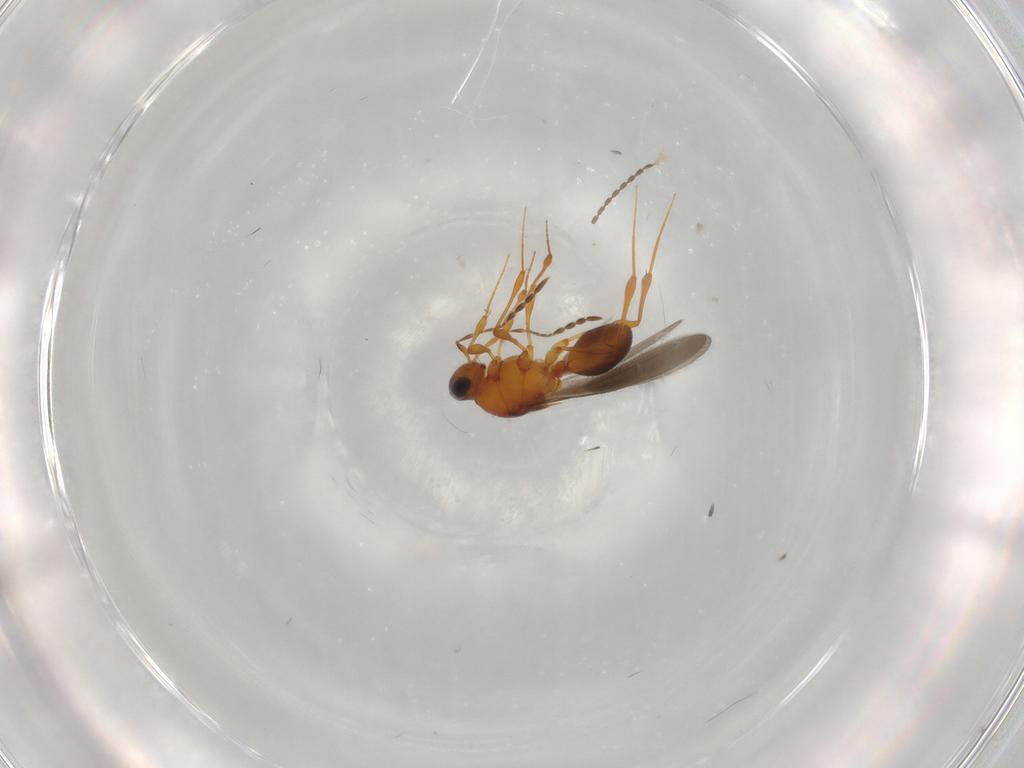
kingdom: Animalia
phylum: Arthropoda
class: Insecta
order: Hymenoptera
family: Platygastridae
